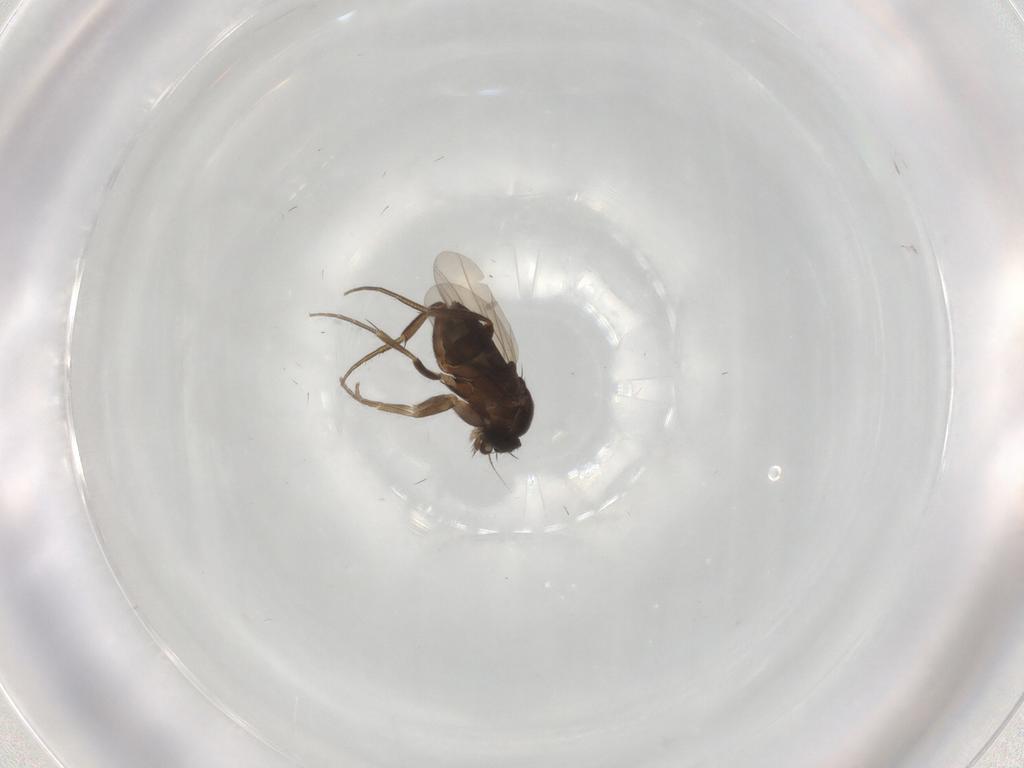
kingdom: Animalia
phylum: Arthropoda
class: Insecta
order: Diptera
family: Phoridae
